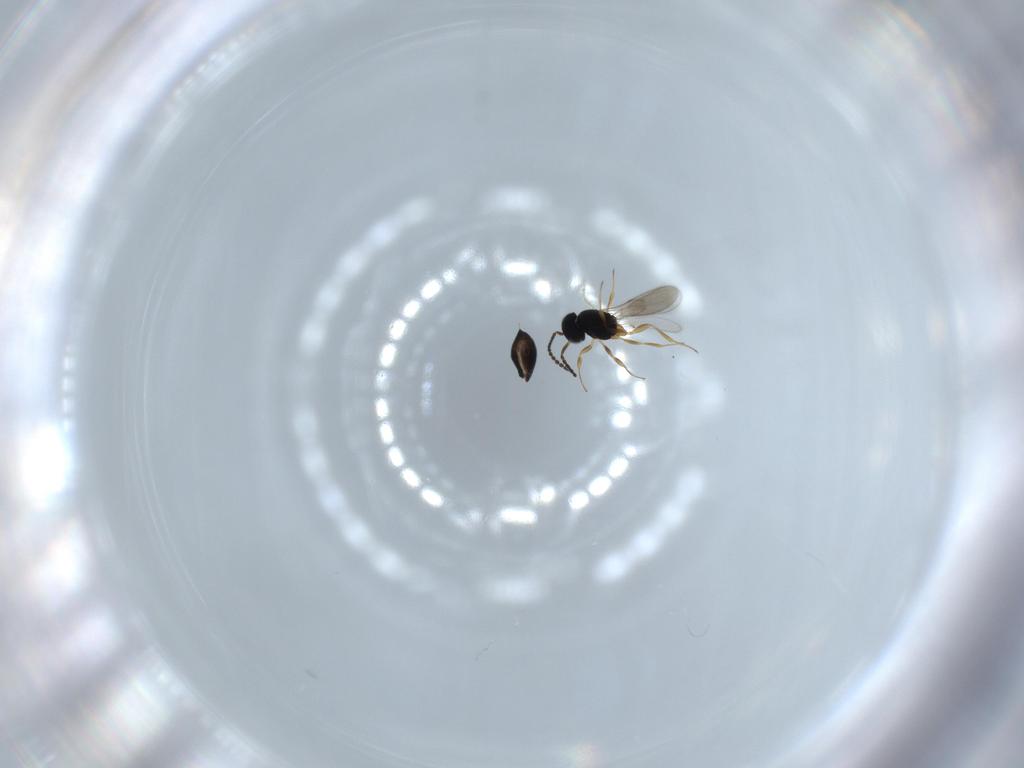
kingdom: Animalia
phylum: Arthropoda
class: Insecta
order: Hymenoptera
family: Scelionidae
